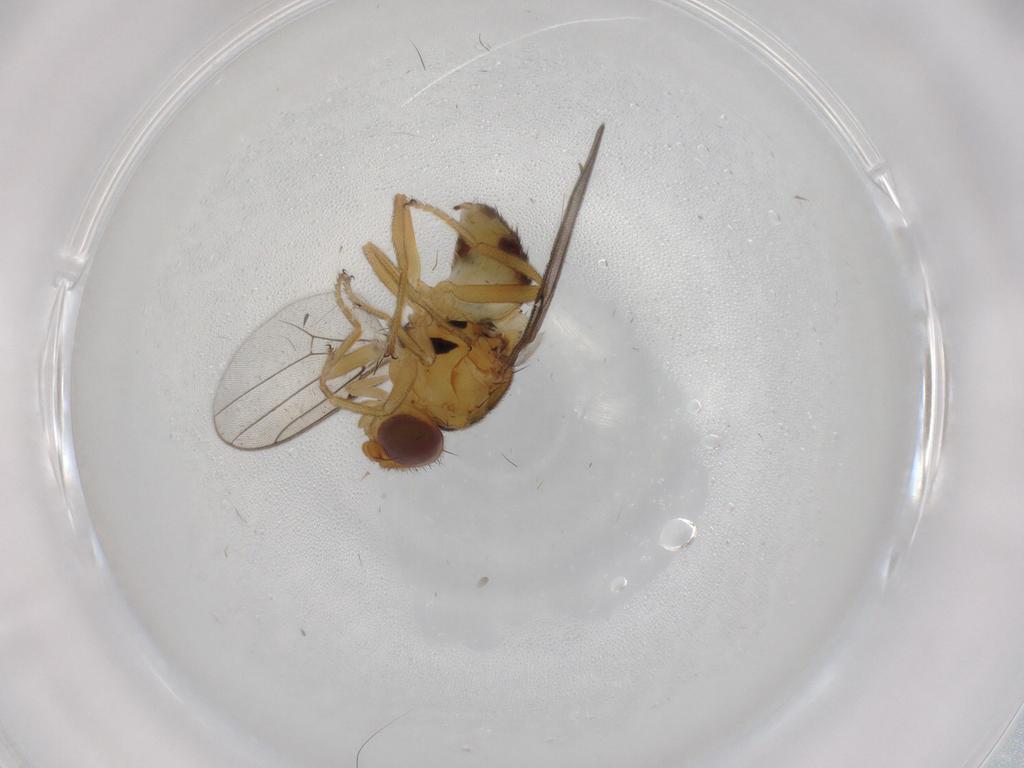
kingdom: Animalia
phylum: Arthropoda
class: Insecta
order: Diptera
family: Chloropidae
